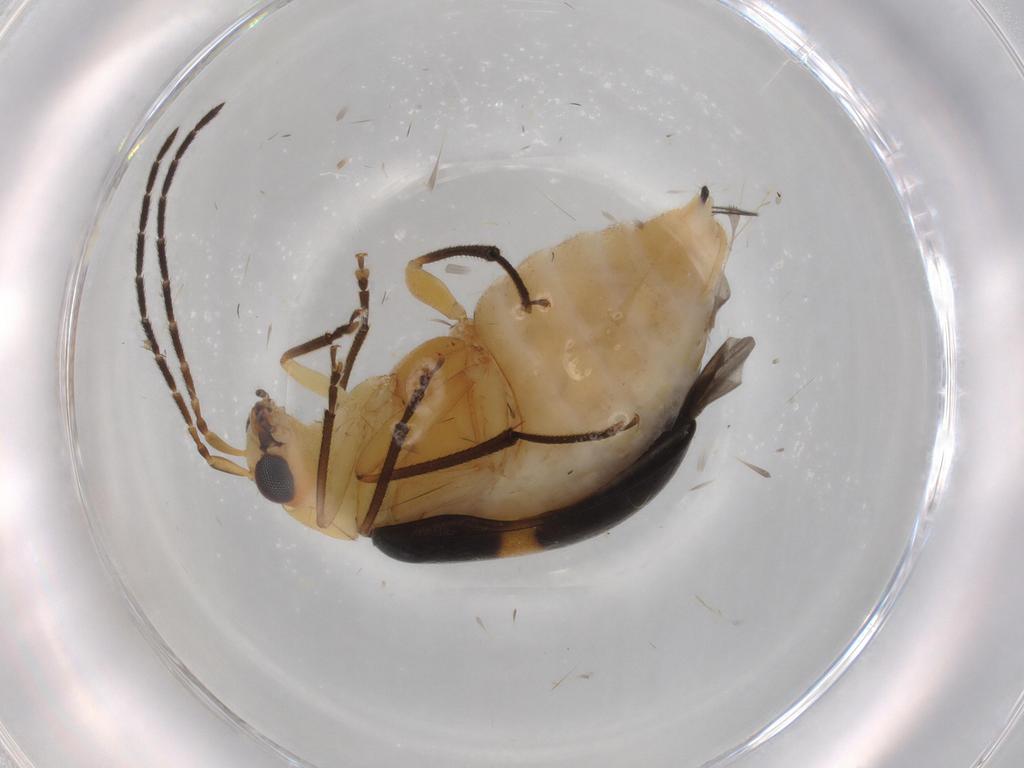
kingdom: Animalia
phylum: Arthropoda
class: Insecta
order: Coleoptera
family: Chrysomelidae
